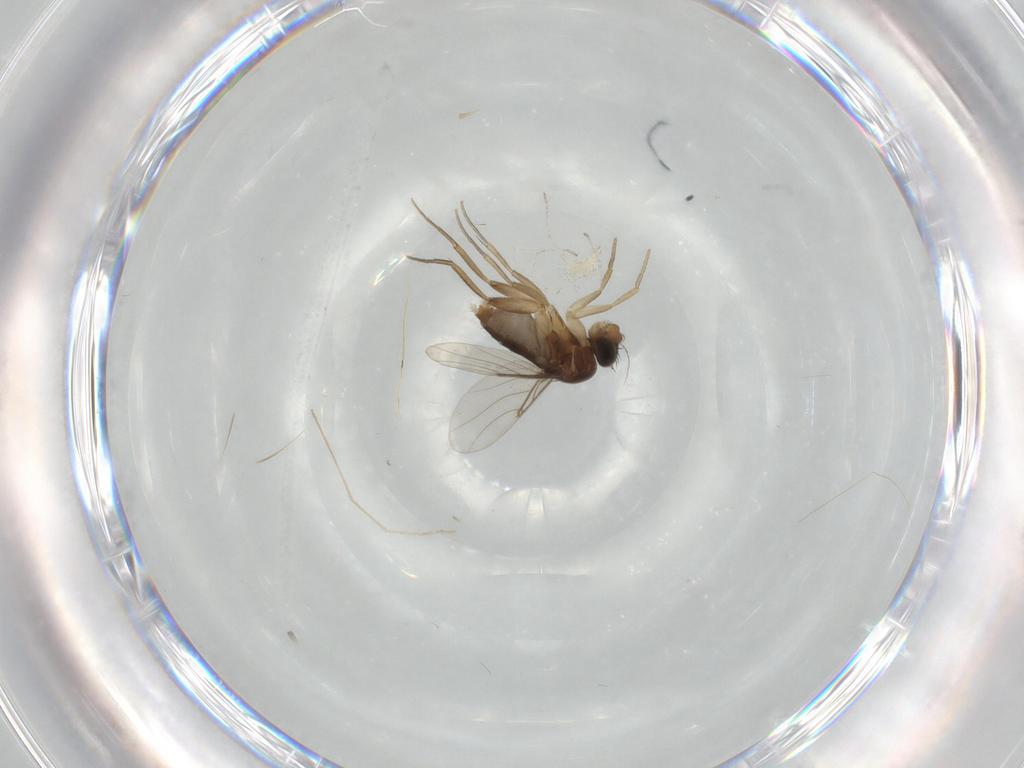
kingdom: Animalia
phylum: Arthropoda
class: Insecta
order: Diptera
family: Chironomidae
